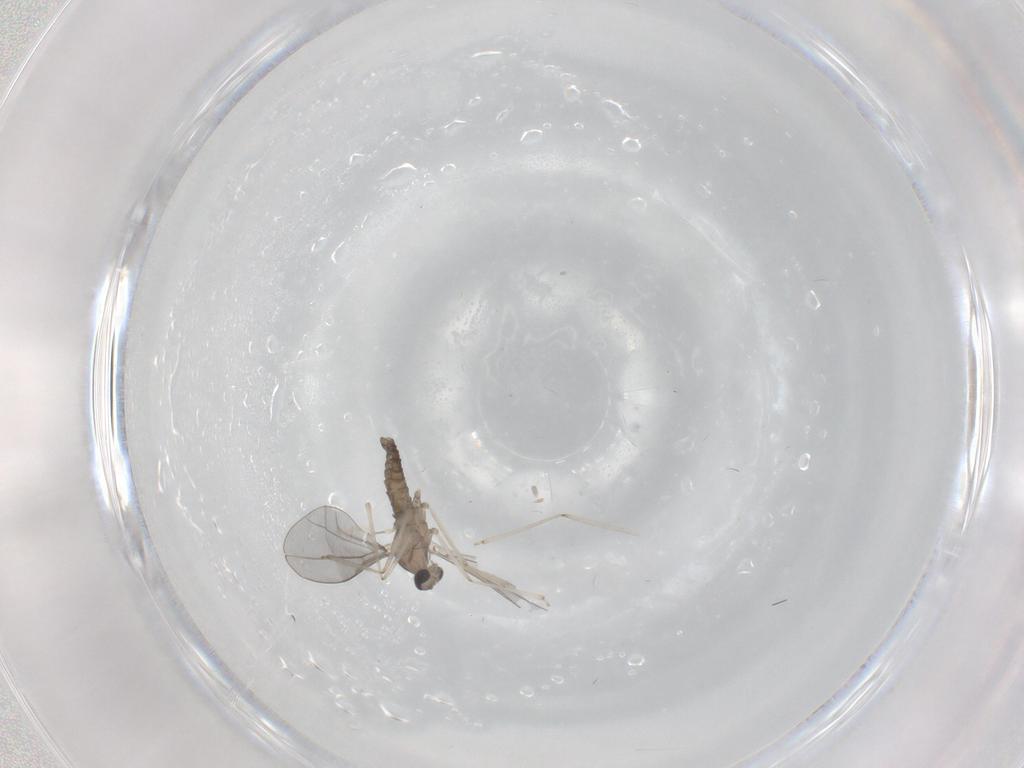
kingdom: Animalia
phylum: Arthropoda
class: Insecta
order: Diptera
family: Cecidomyiidae
